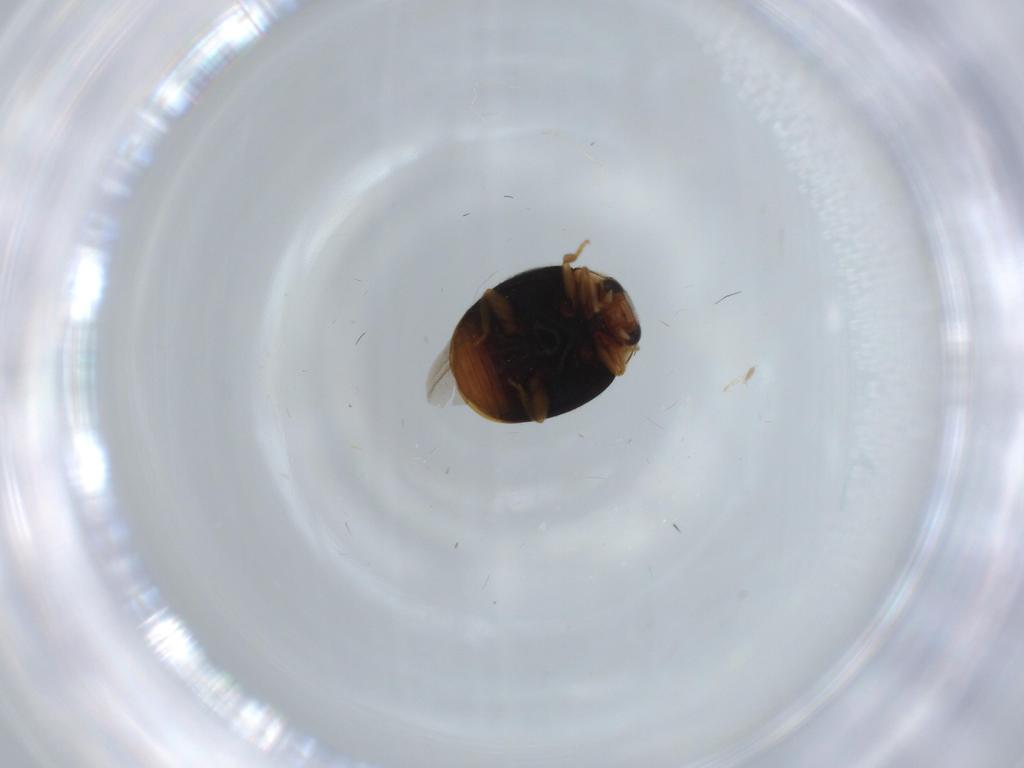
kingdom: Animalia
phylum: Arthropoda
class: Insecta
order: Coleoptera
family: Coccinellidae
